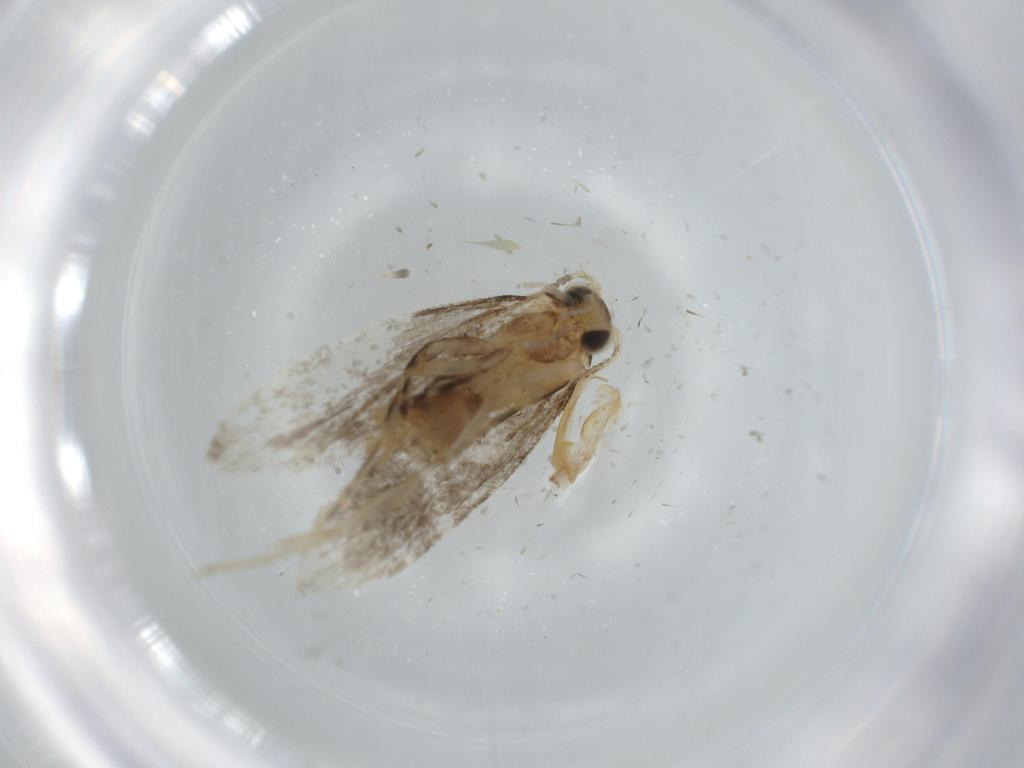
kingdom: Animalia
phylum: Arthropoda
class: Insecta
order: Lepidoptera
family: Tineidae
